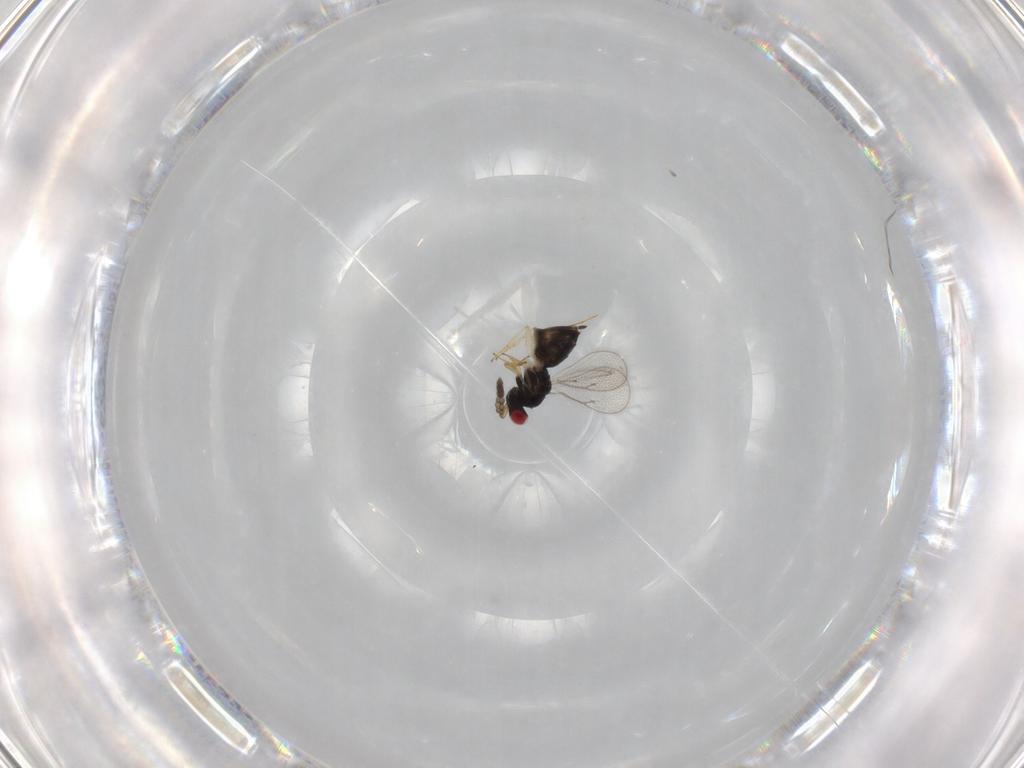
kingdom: Animalia
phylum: Arthropoda
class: Insecta
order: Hymenoptera
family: Eulophidae
